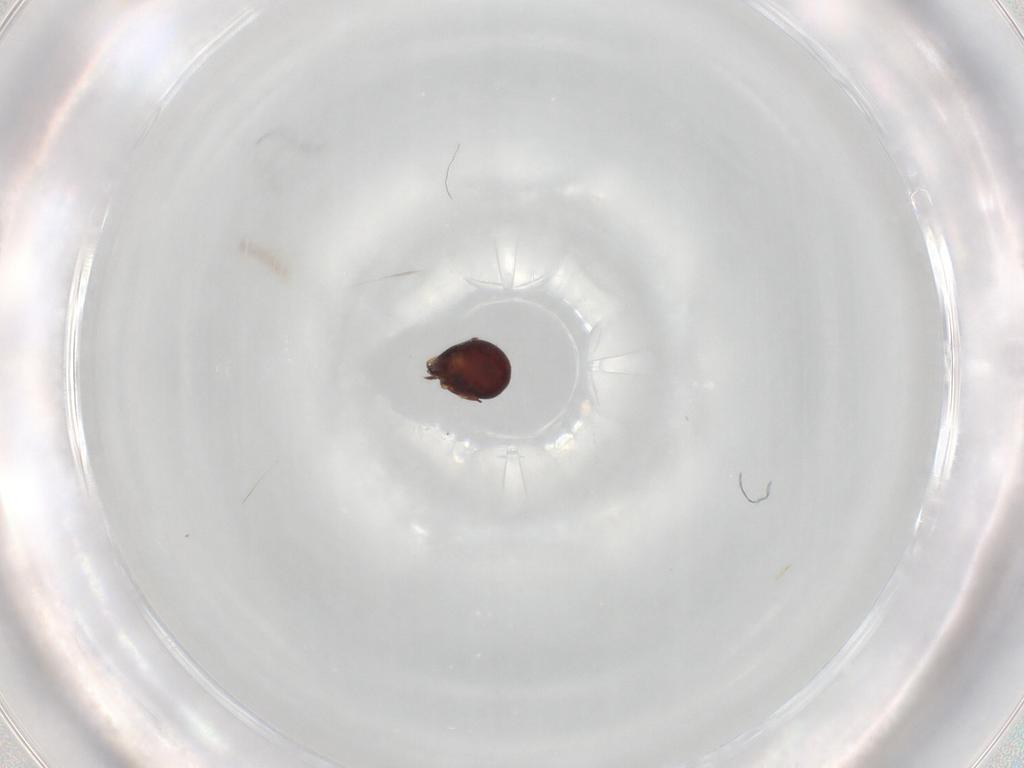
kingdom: Animalia
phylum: Arthropoda
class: Arachnida
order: Sarcoptiformes
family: Humerobatidae
